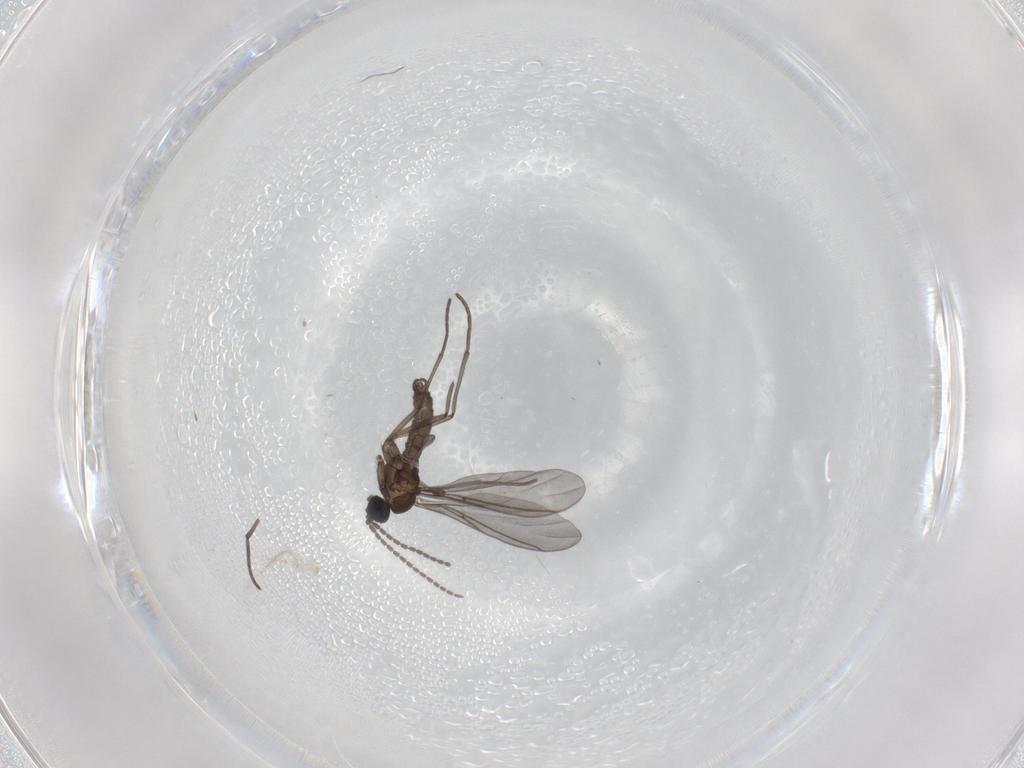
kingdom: Animalia
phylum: Arthropoda
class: Insecta
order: Diptera
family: Sciaridae
